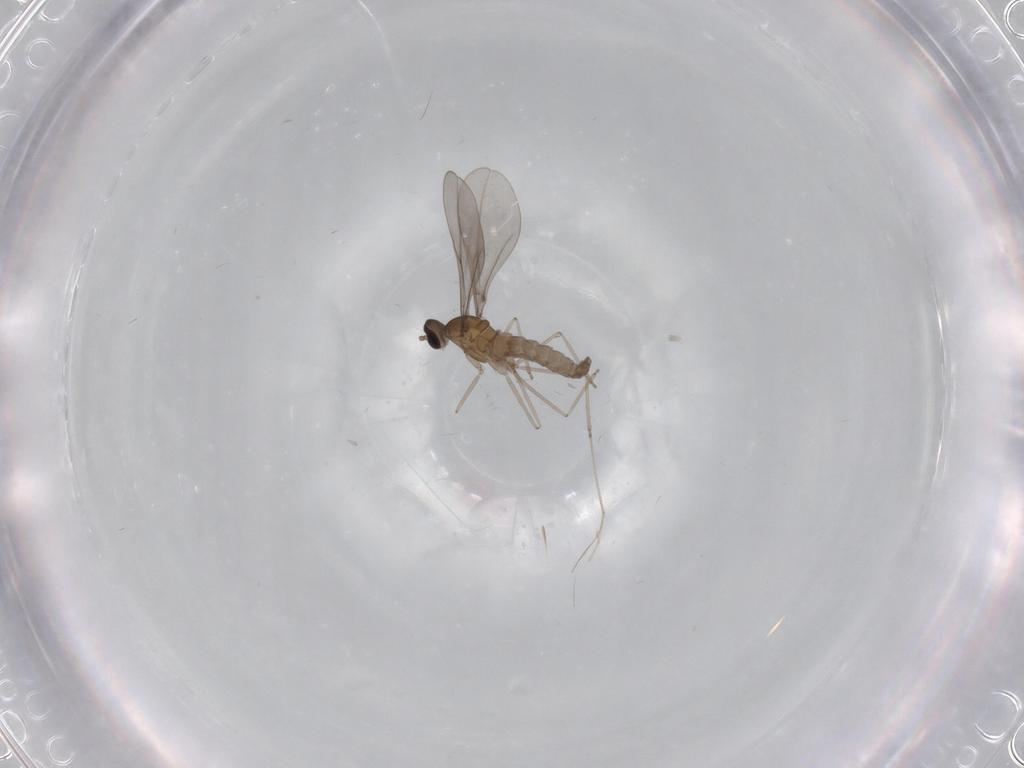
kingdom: Animalia
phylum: Arthropoda
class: Insecta
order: Diptera
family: Cecidomyiidae
